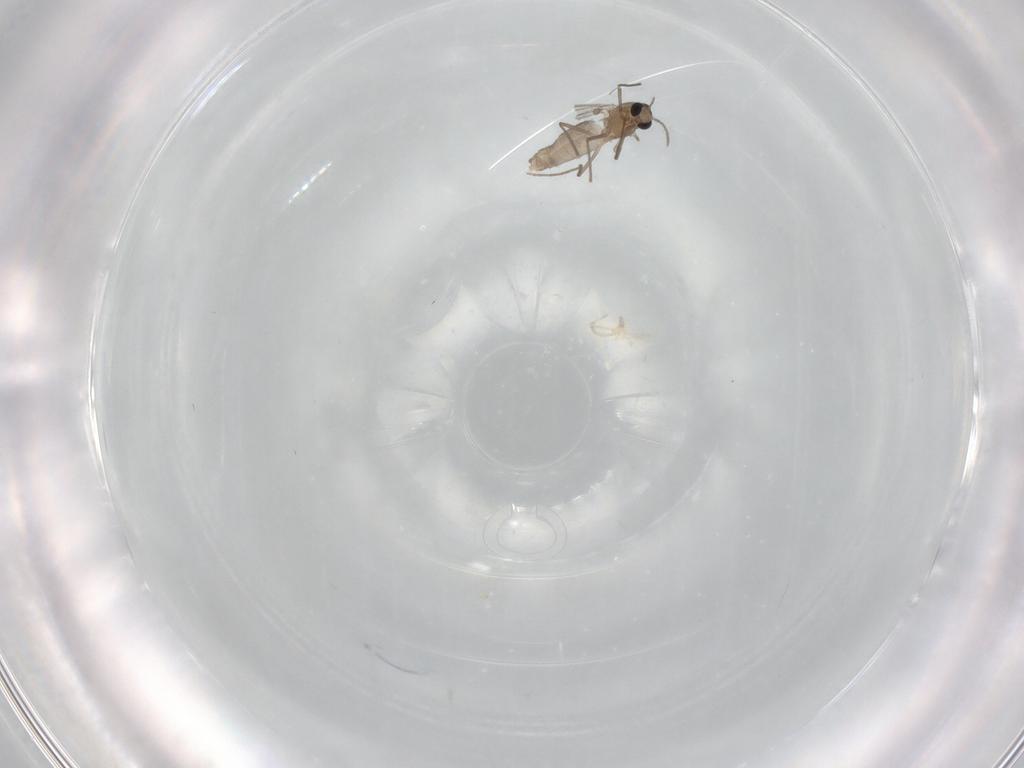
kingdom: Animalia
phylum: Arthropoda
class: Insecta
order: Diptera
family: Chironomidae
